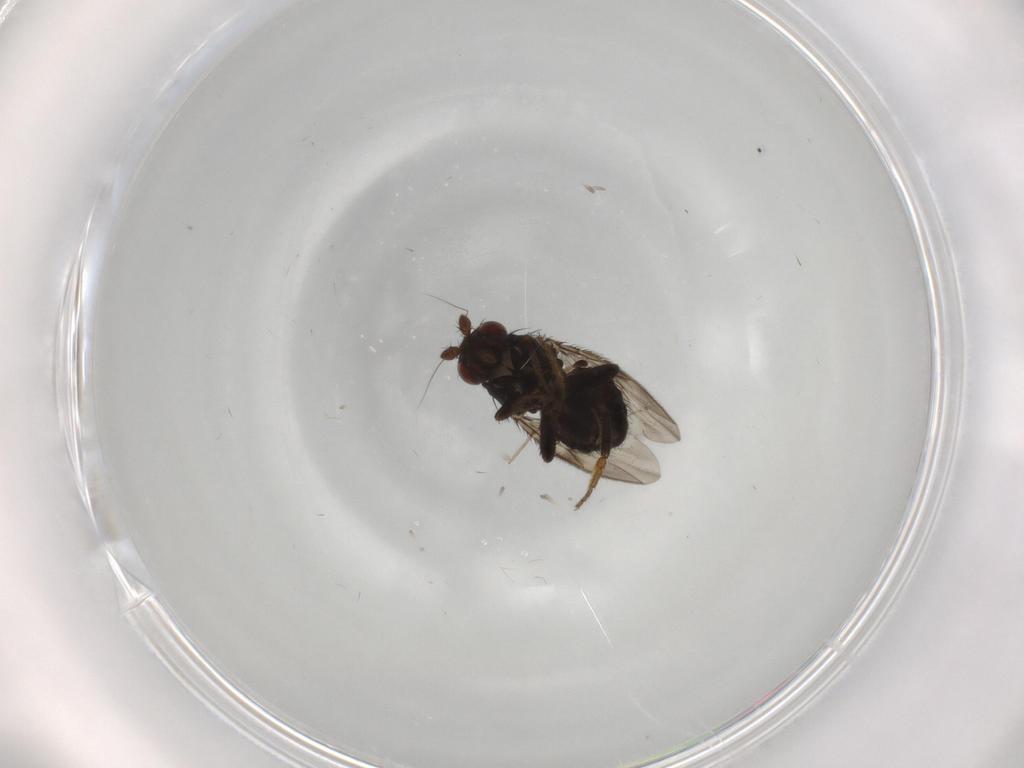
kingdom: Animalia
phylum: Arthropoda
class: Insecta
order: Diptera
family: Sphaeroceridae
